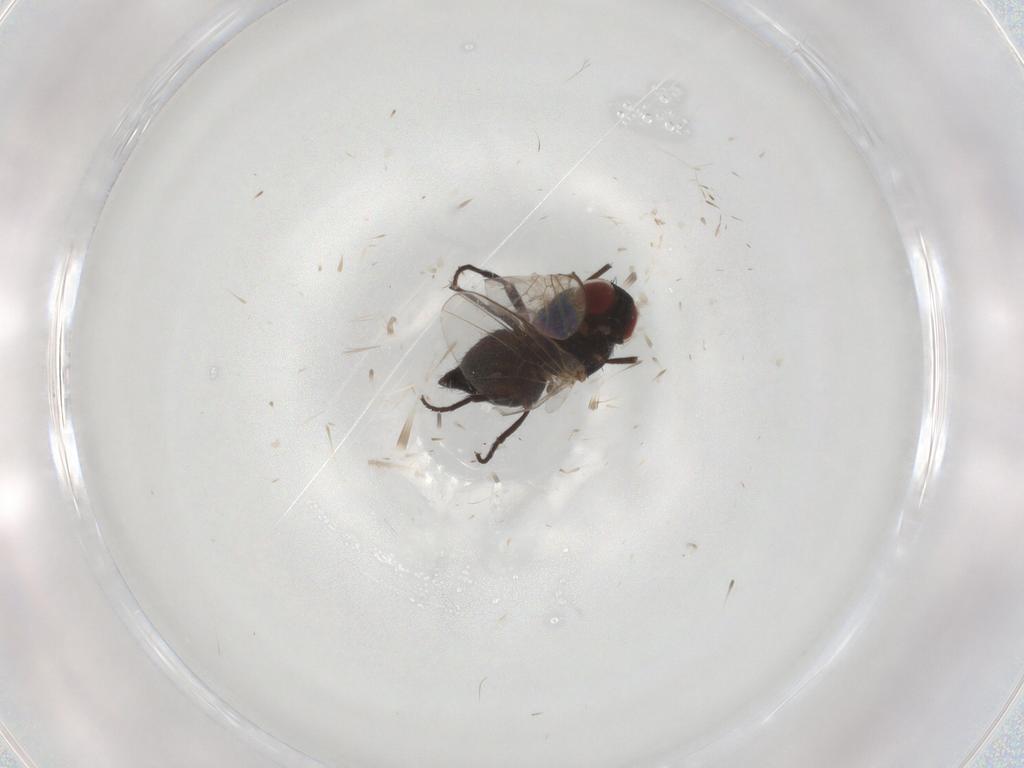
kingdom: Animalia
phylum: Arthropoda
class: Insecta
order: Diptera
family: Agromyzidae
